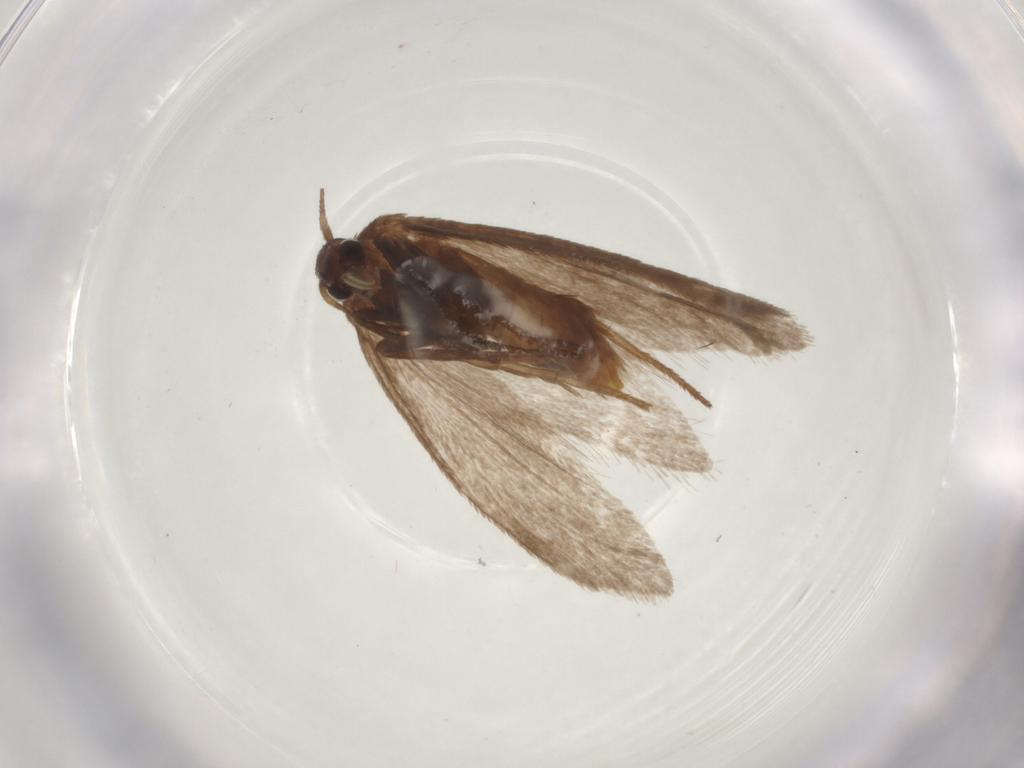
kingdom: Animalia
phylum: Arthropoda
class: Insecta
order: Lepidoptera
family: Limacodidae
